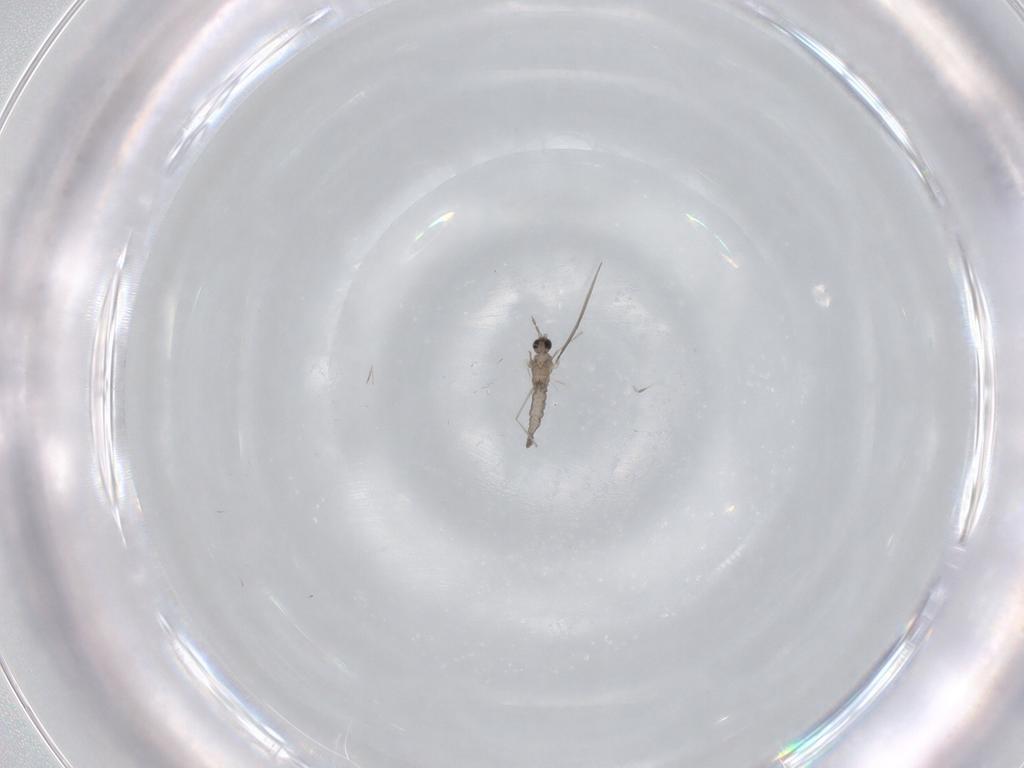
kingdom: Animalia
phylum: Arthropoda
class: Insecta
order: Diptera
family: Cecidomyiidae
